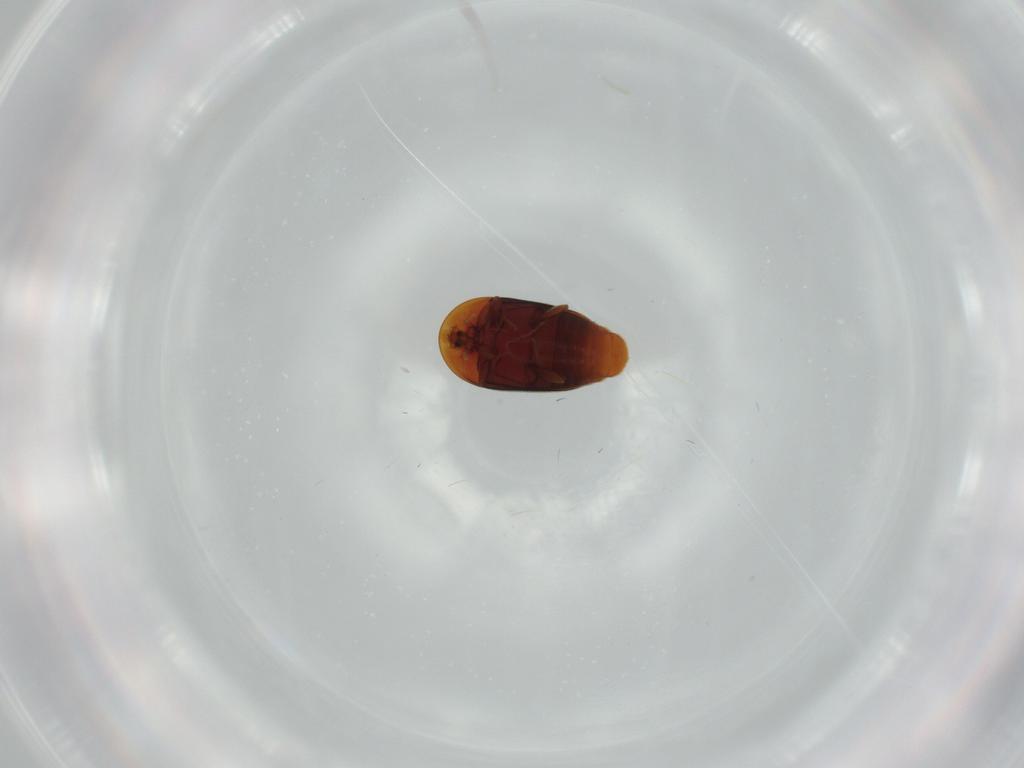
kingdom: Animalia
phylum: Arthropoda
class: Insecta
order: Coleoptera
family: Corylophidae
